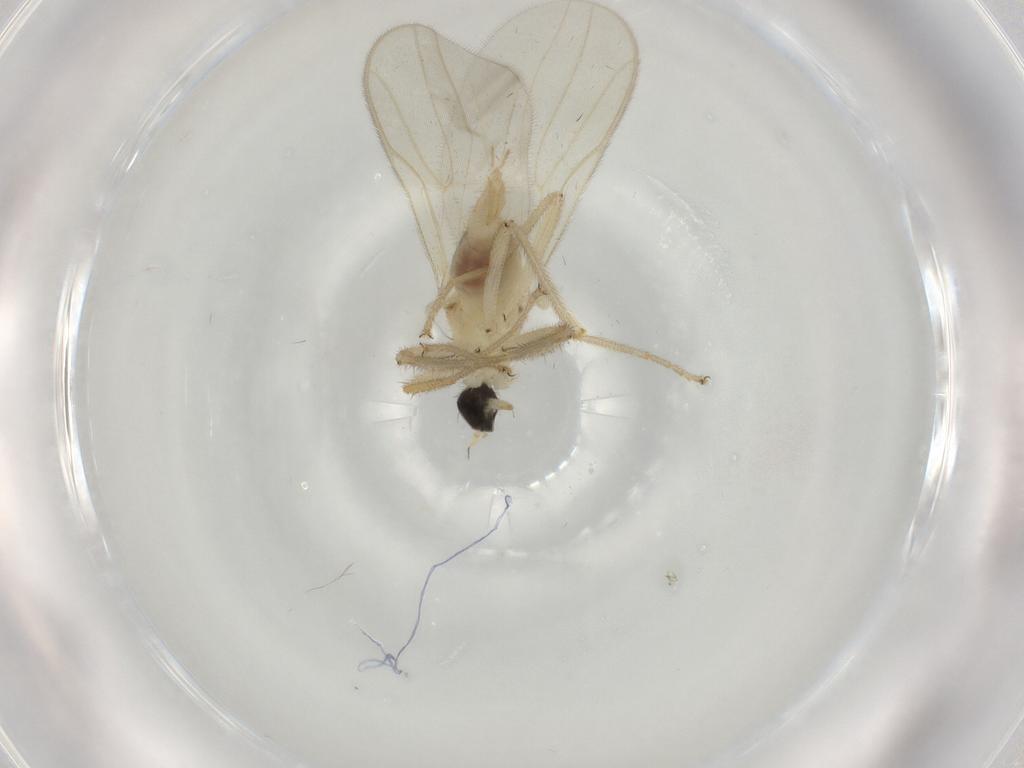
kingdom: Animalia
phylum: Arthropoda
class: Insecta
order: Diptera
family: Hybotidae
